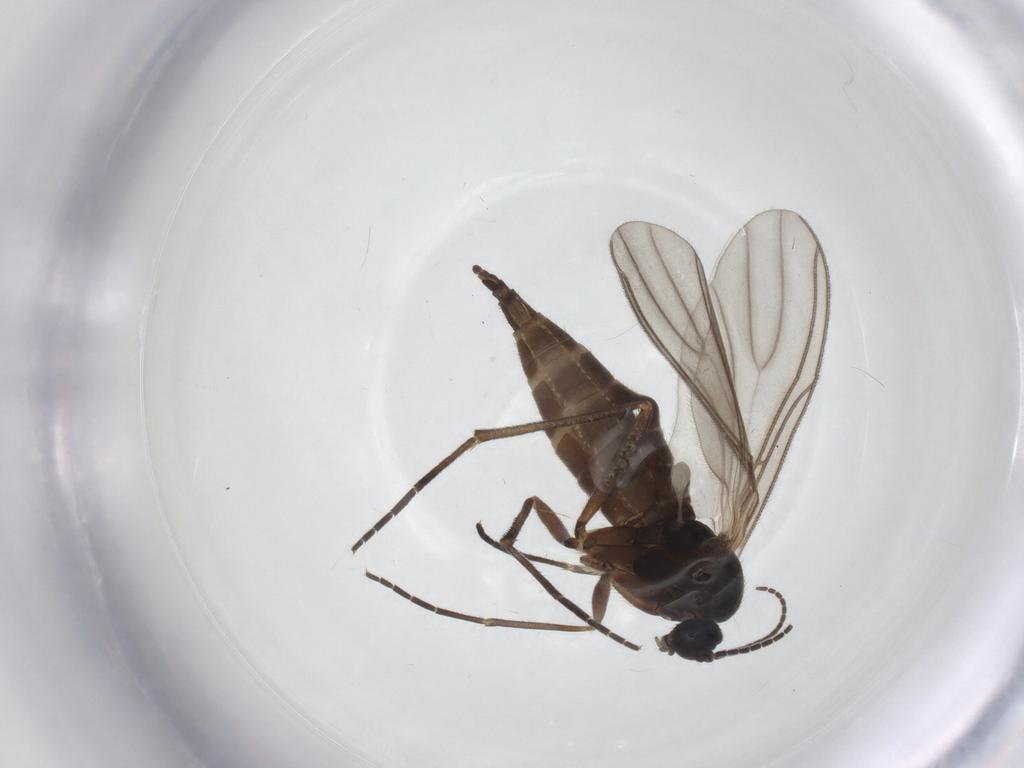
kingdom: Animalia
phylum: Arthropoda
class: Insecta
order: Diptera
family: Sciaridae
